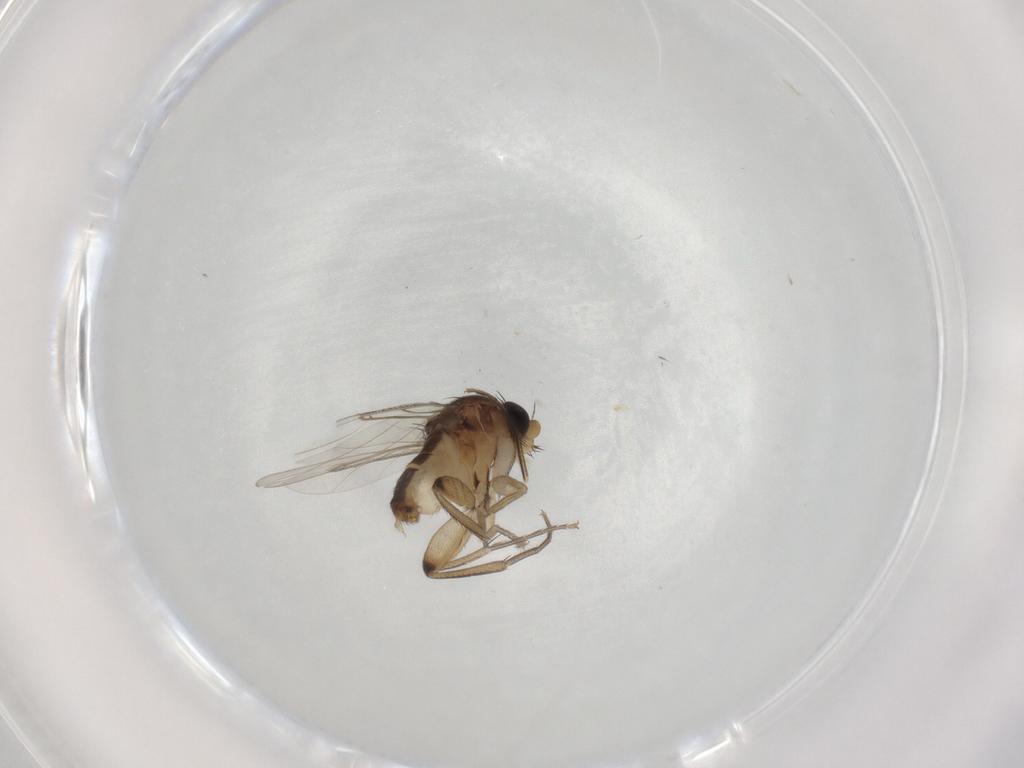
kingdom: Animalia
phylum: Arthropoda
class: Insecta
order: Diptera
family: Phoridae
